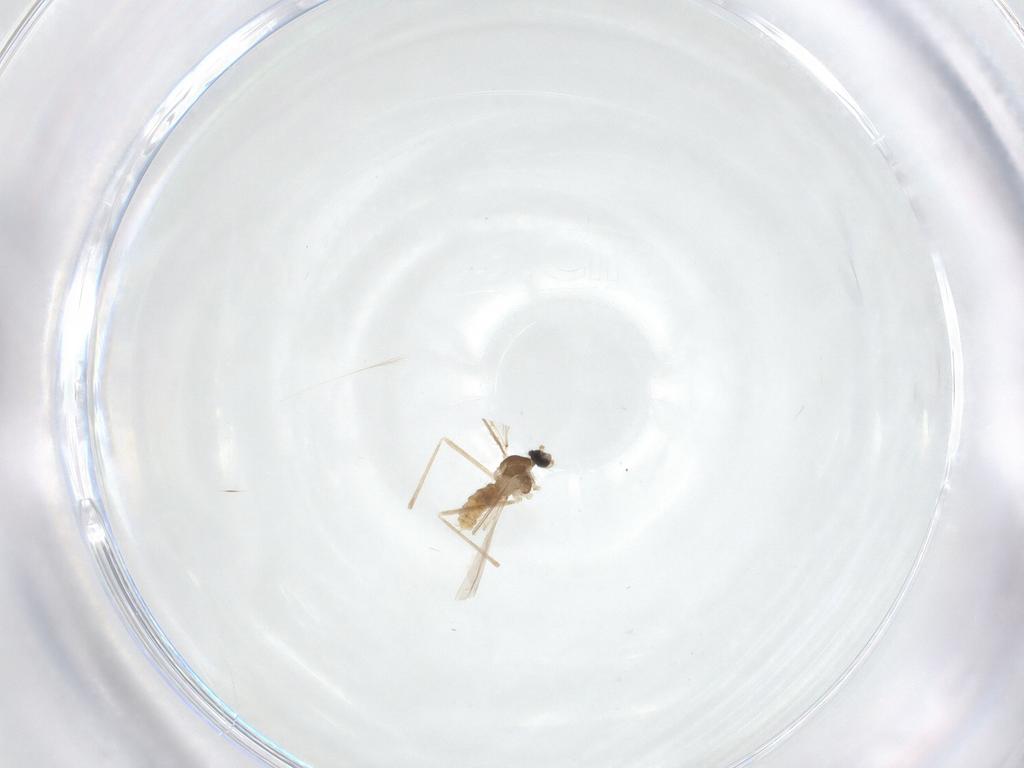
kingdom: Animalia
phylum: Arthropoda
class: Insecta
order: Diptera
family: Cecidomyiidae
